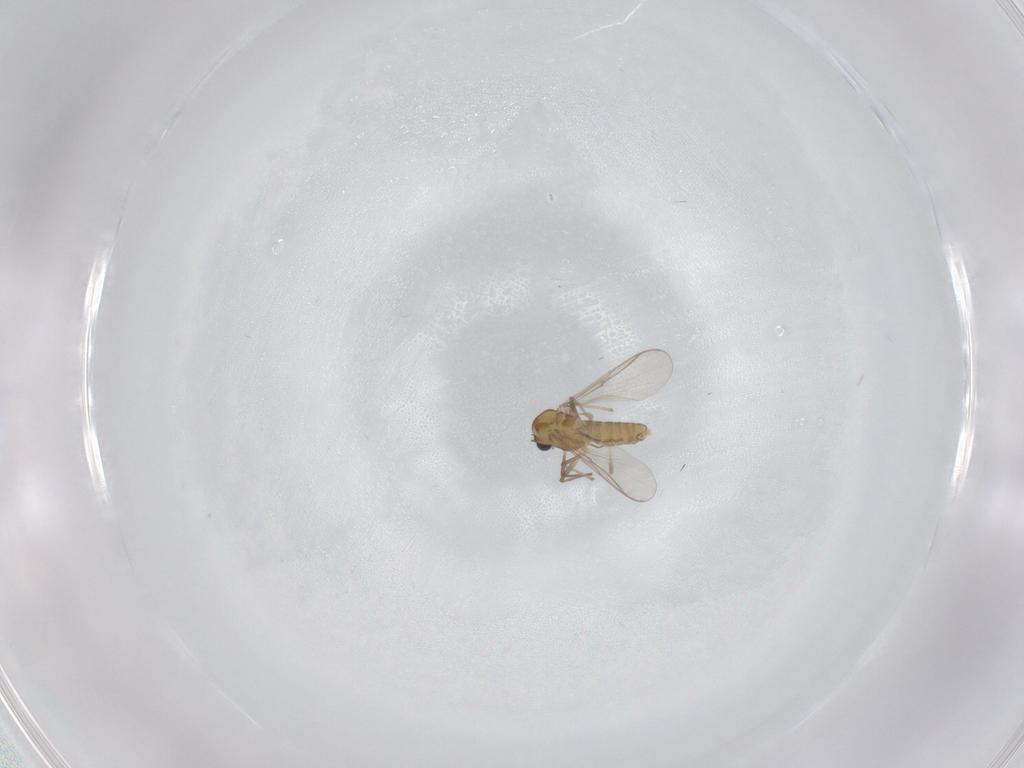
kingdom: Animalia
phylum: Arthropoda
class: Insecta
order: Diptera
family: Chironomidae
